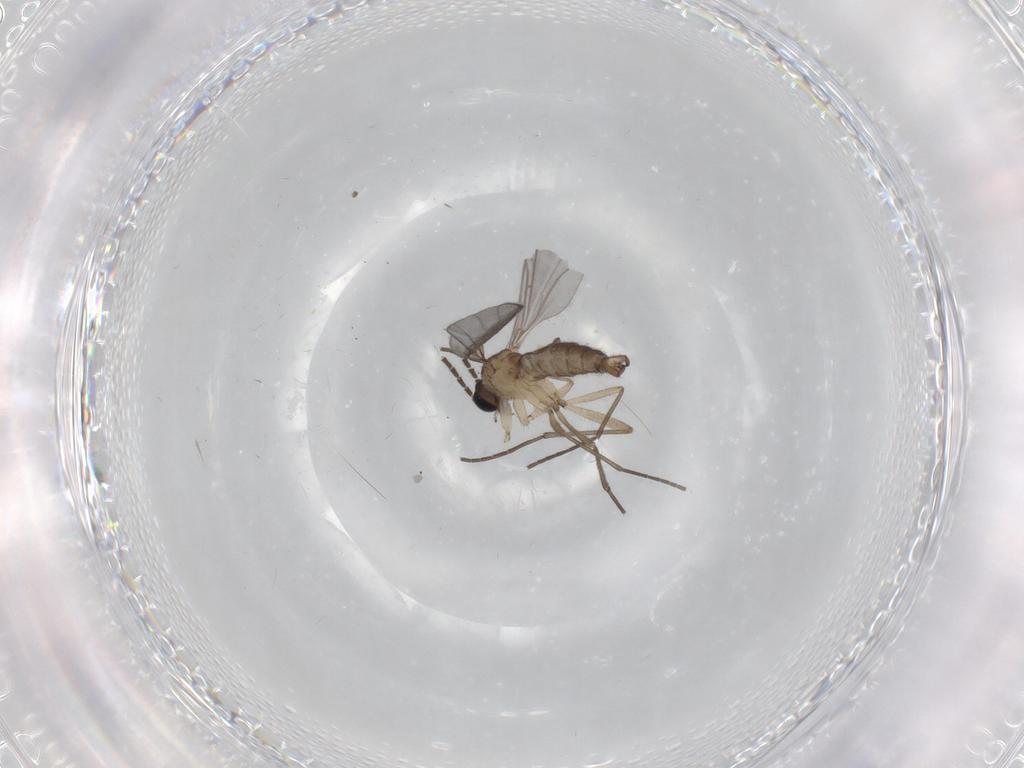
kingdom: Animalia
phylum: Arthropoda
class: Insecta
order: Diptera
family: Sciaridae
